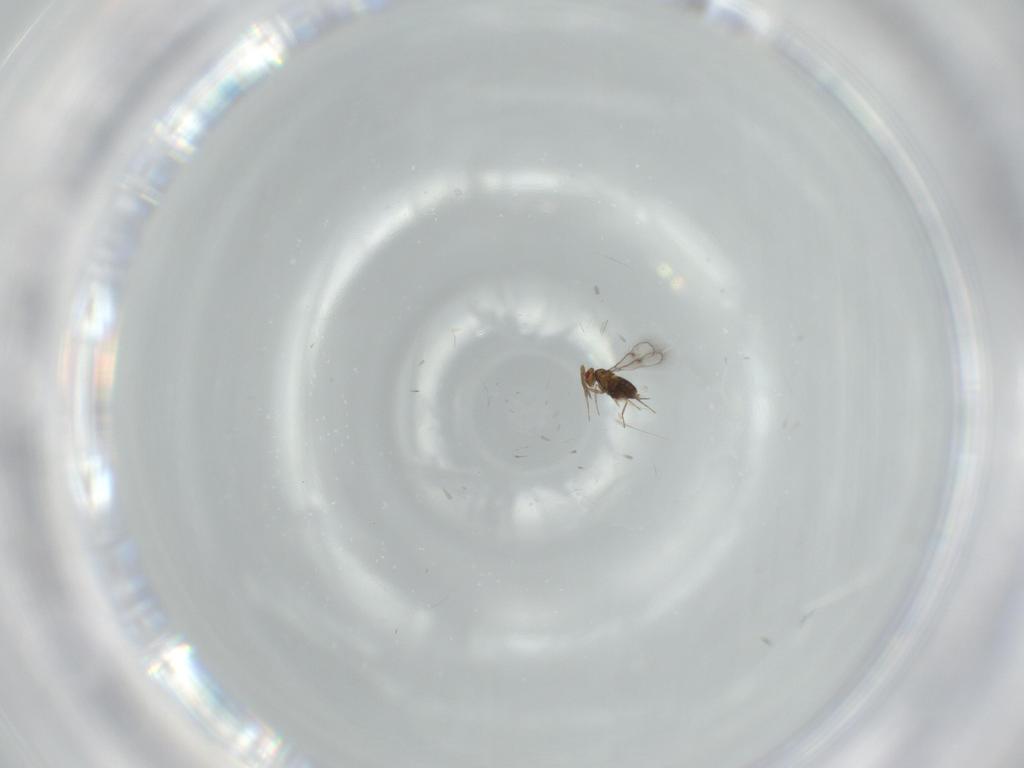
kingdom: Animalia
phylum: Arthropoda
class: Insecta
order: Hymenoptera
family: Trichogrammatidae
